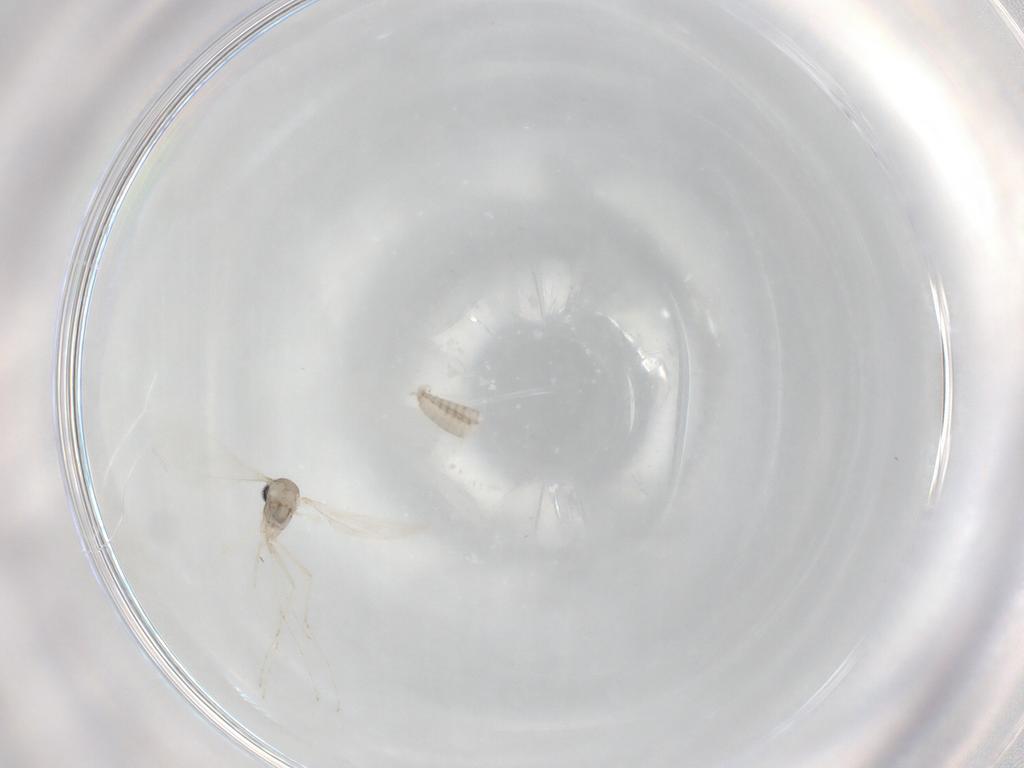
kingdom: Animalia
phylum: Arthropoda
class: Insecta
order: Diptera
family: Cecidomyiidae
